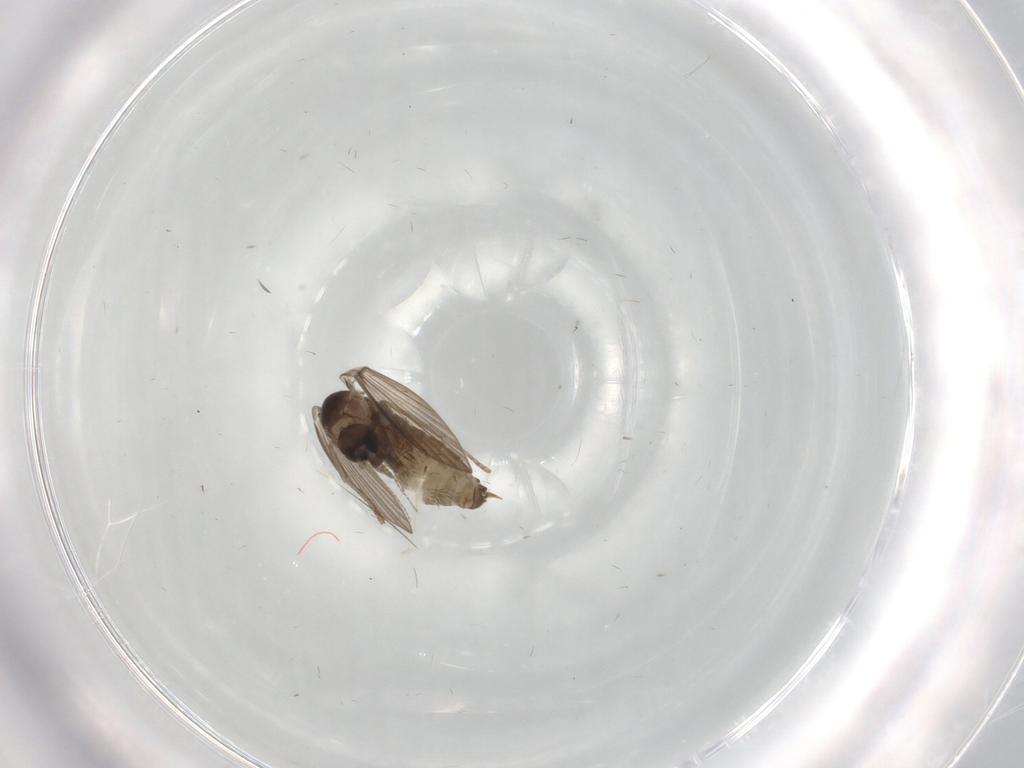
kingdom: Animalia
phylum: Arthropoda
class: Insecta
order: Diptera
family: Psychodidae
